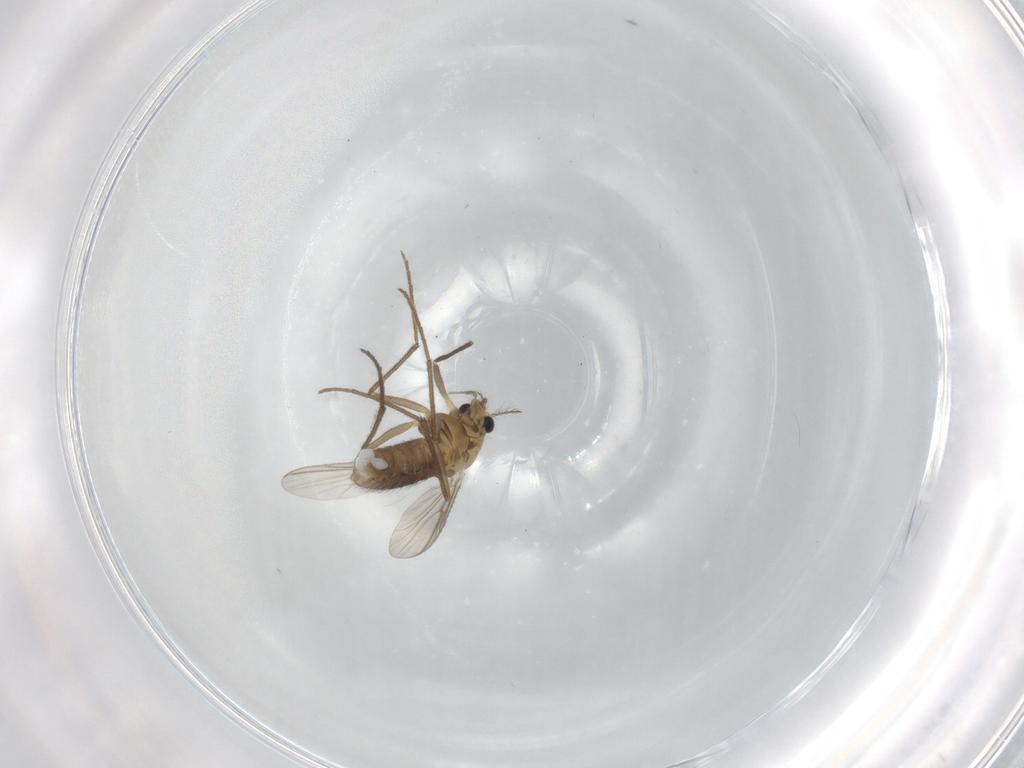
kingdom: Animalia
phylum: Arthropoda
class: Insecta
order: Diptera
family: Chironomidae
